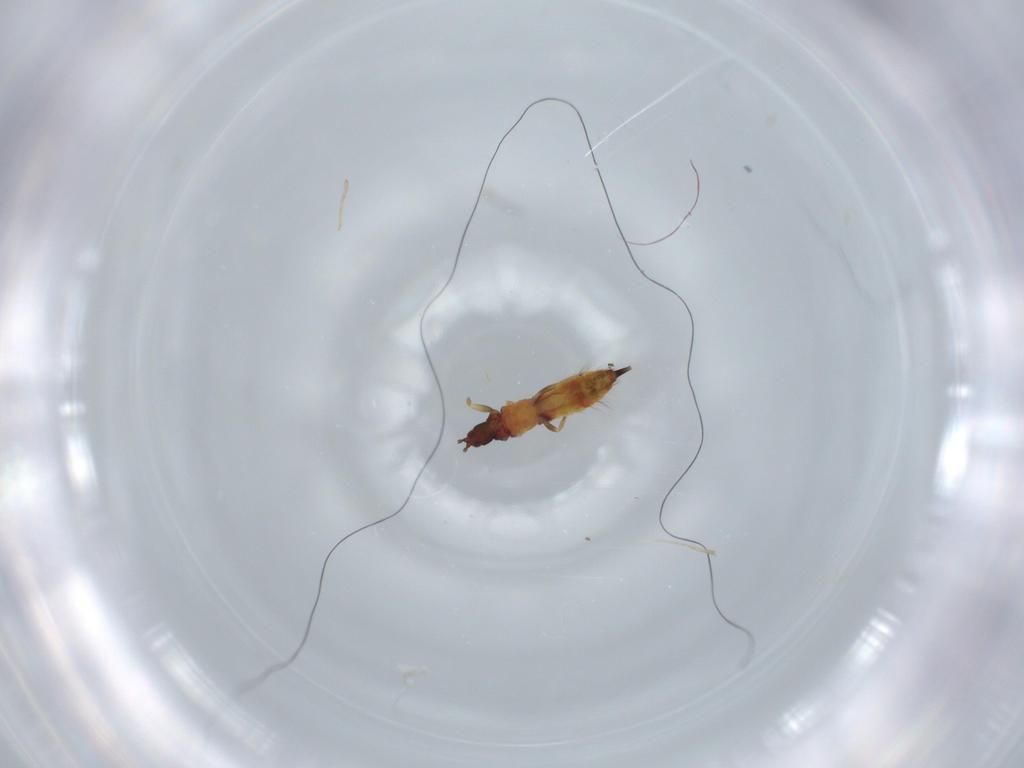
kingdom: Animalia
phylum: Arthropoda
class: Insecta
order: Thysanoptera
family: Phlaeothripidae
